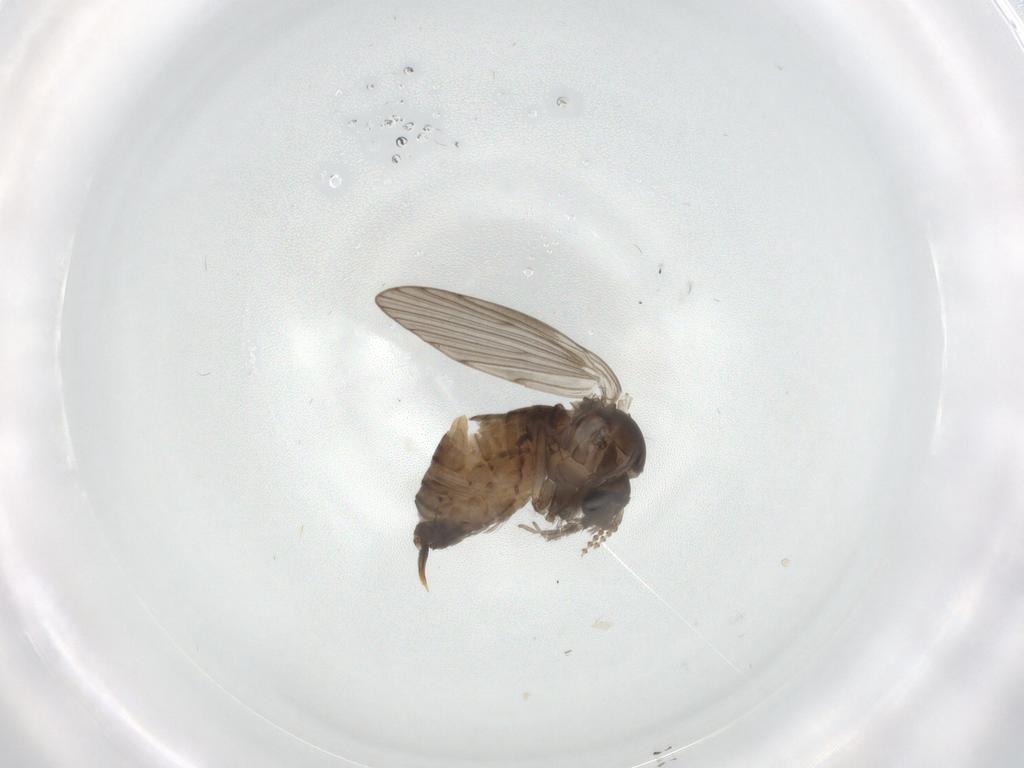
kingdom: Animalia
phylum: Arthropoda
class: Insecta
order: Diptera
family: Psychodidae
